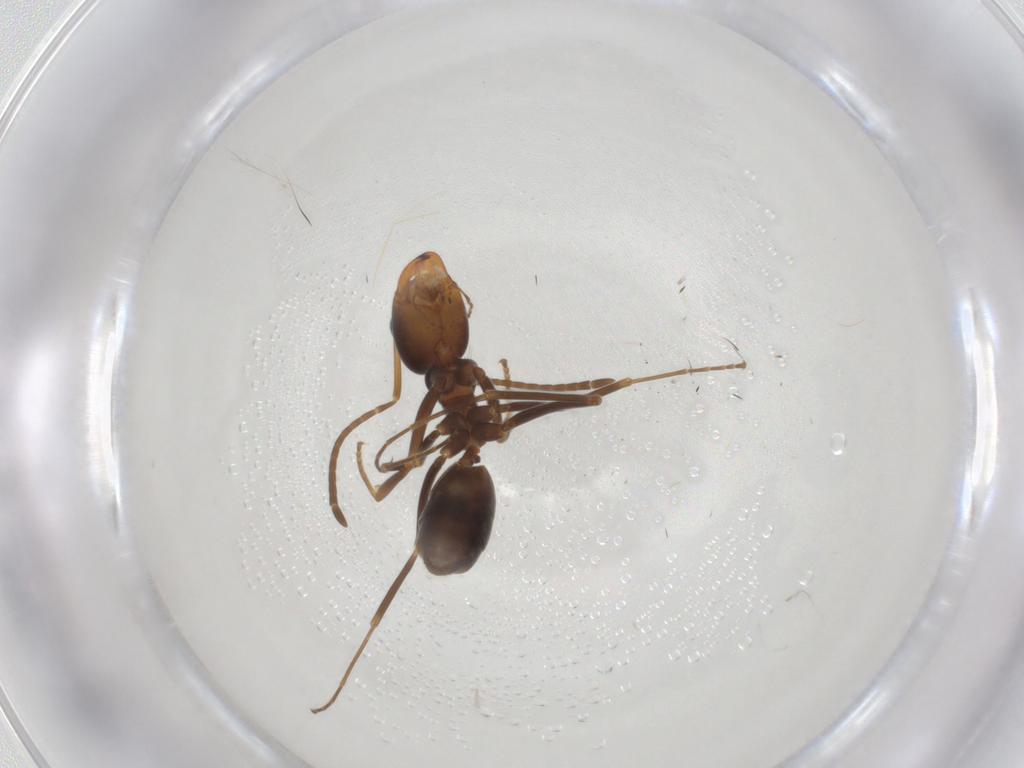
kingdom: Animalia
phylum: Arthropoda
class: Insecta
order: Hymenoptera
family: Formicidae
